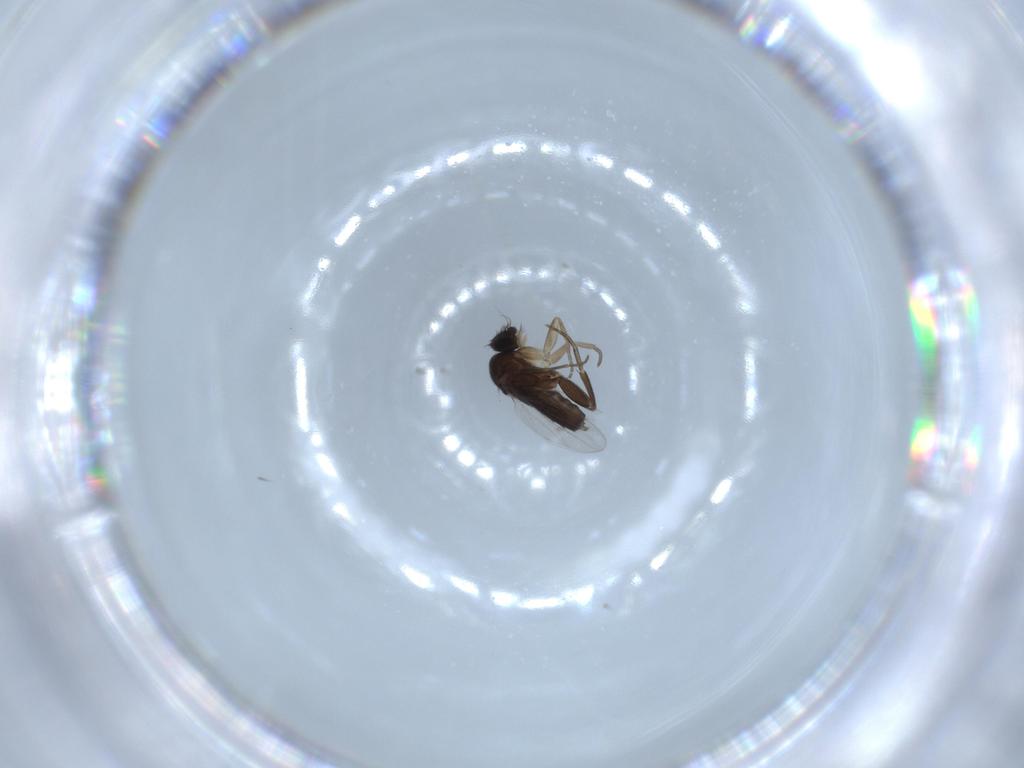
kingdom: Animalia
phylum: Arthropoda
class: Insecta
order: Diptera
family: Phoridae
